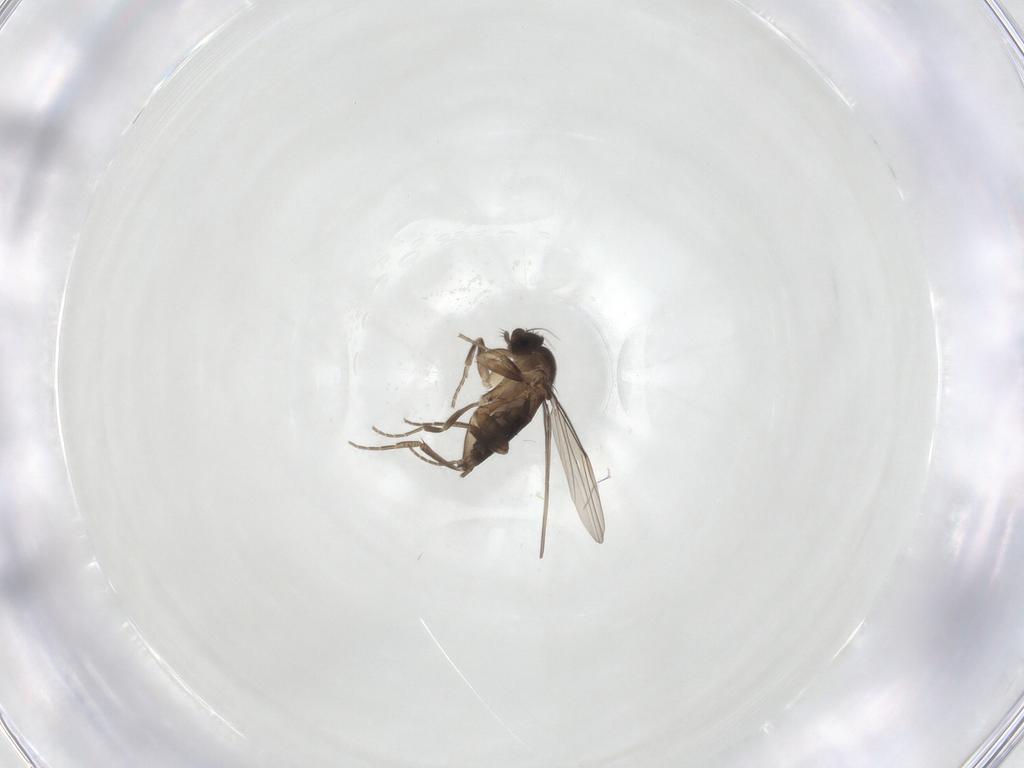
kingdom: Animalia
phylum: Arthropoda
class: Insecta
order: Diptera
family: Phoridae
